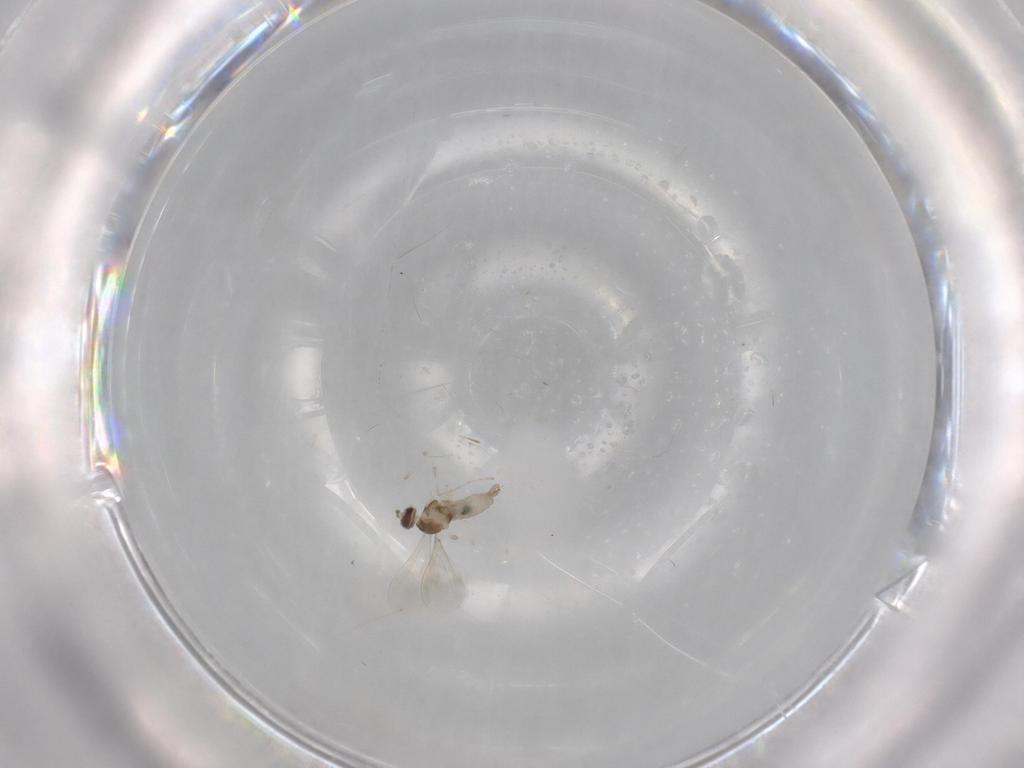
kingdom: Animalia
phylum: Arthropoda
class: Insecta
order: Diptera
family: Cecidomyiidae
